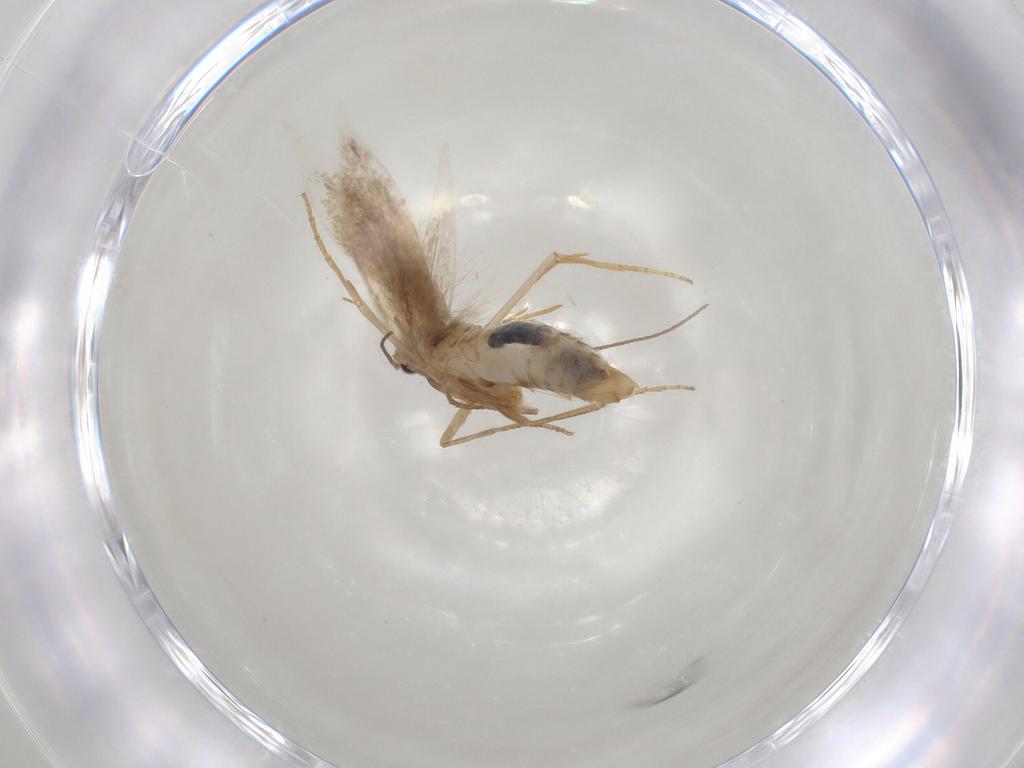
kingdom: Animalia
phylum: Arthropoda
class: Insecta
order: Lepidoptera
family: Bucculatricidae
